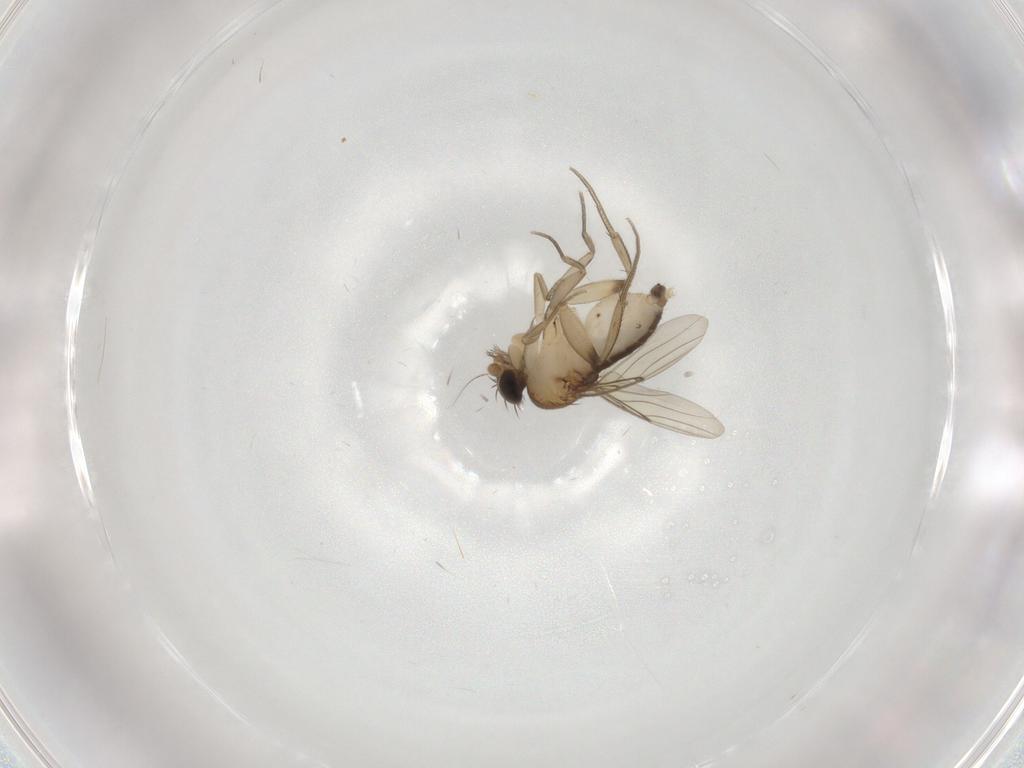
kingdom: Animalia
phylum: Arthropoda
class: Insecta
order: Diptera
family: Phoridae
